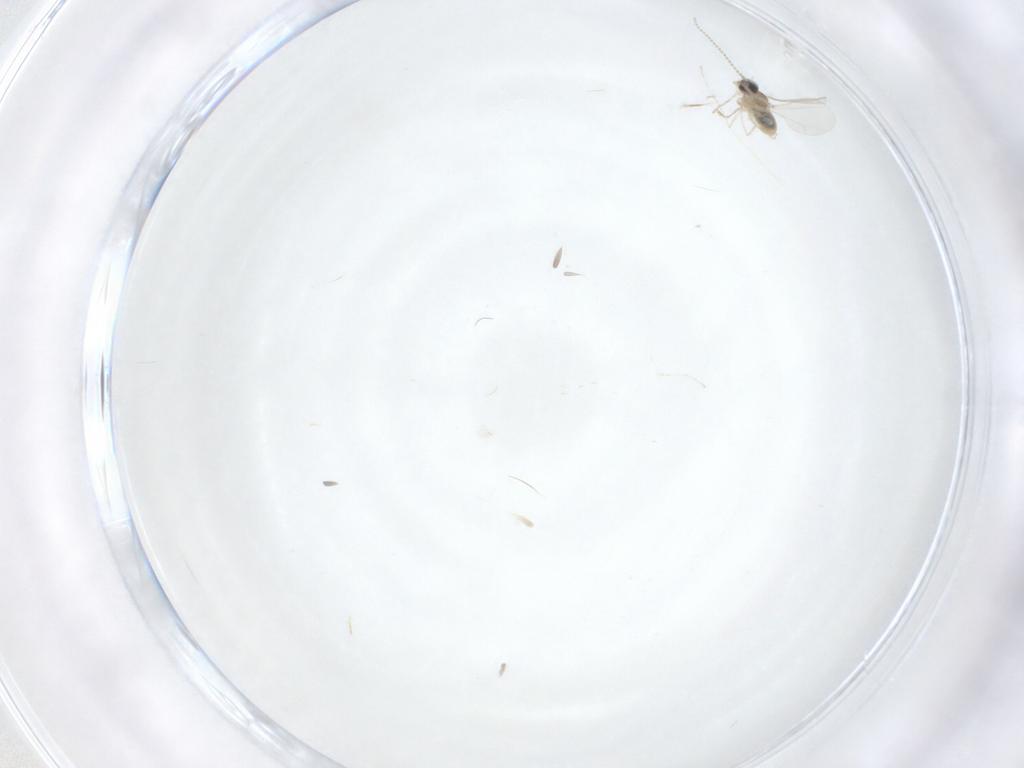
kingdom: Animalia
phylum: Arthropoda
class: Insecta
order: Diptera
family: Cecidomyiidae
